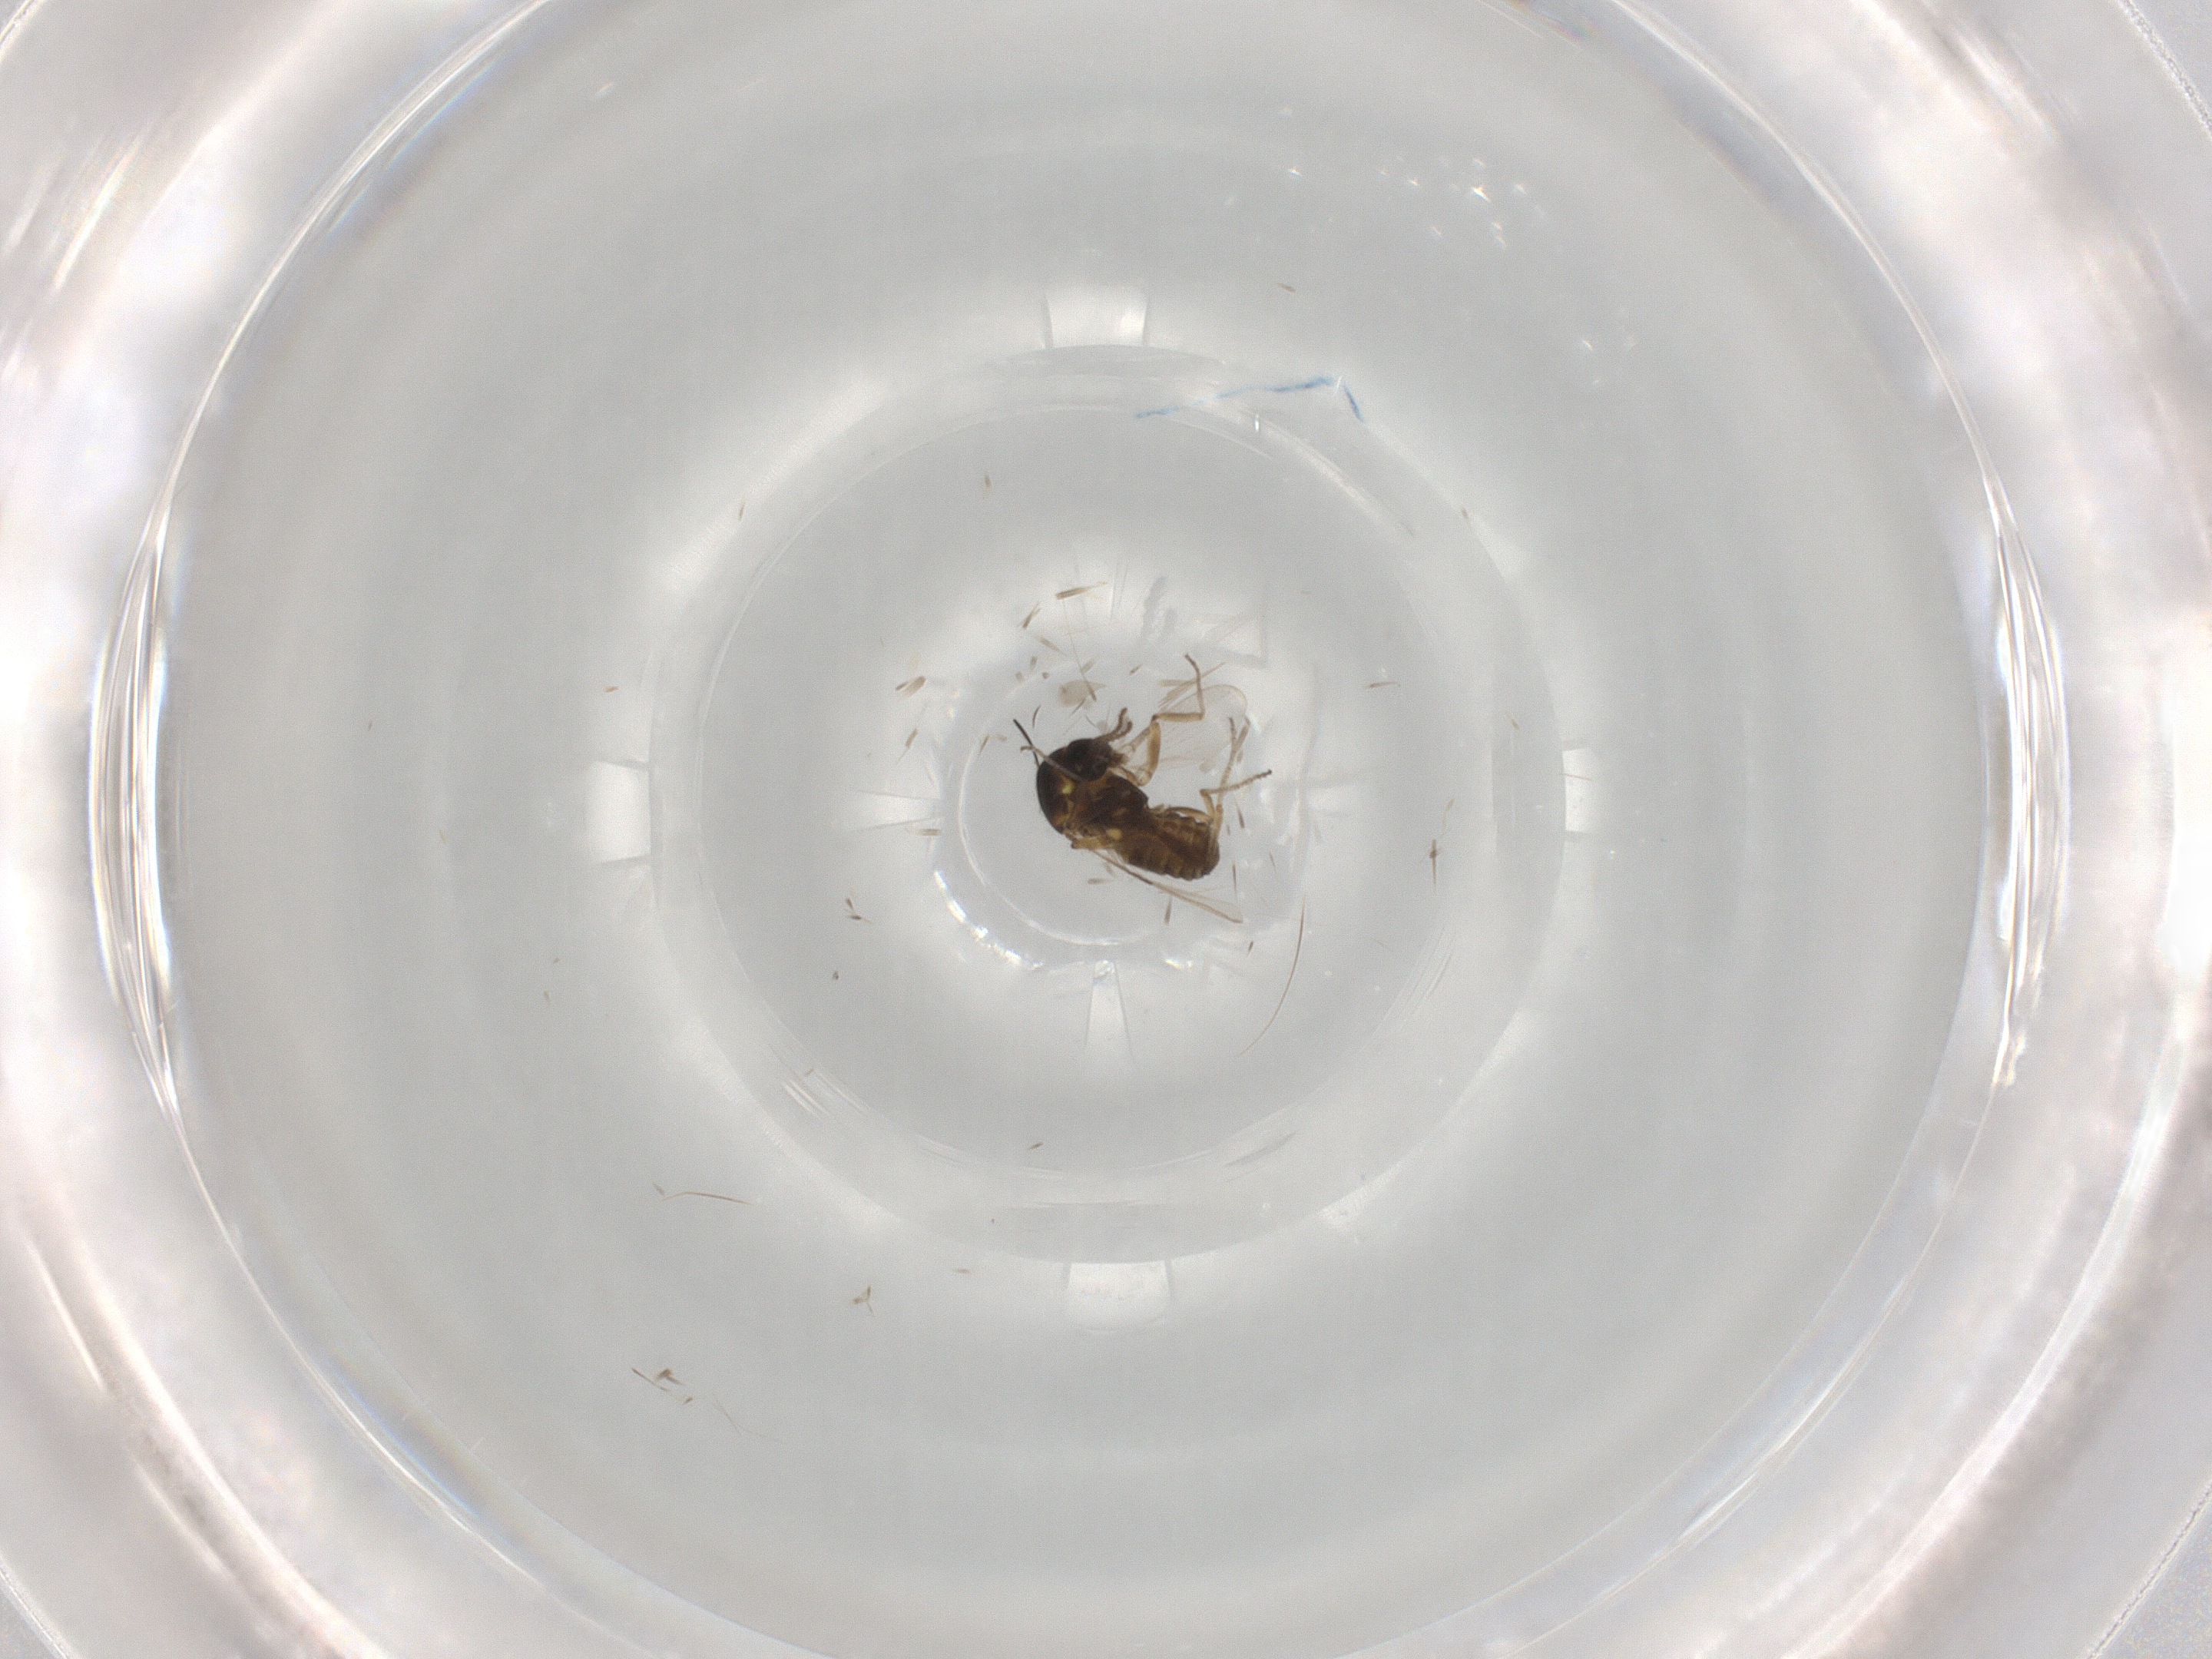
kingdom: Animalia
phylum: Arthropoda
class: Insecta
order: Diptera
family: Ceratopogonidae
